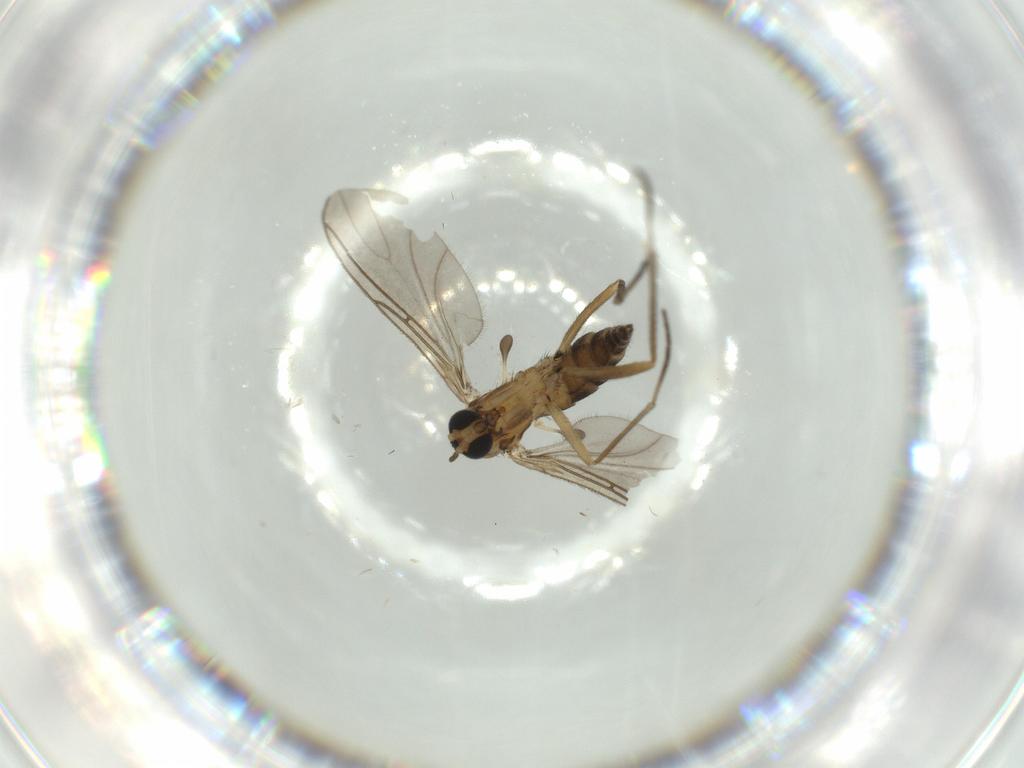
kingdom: Animalia
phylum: Arthropoda
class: Insecta
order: Diptera
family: Sciaridae
